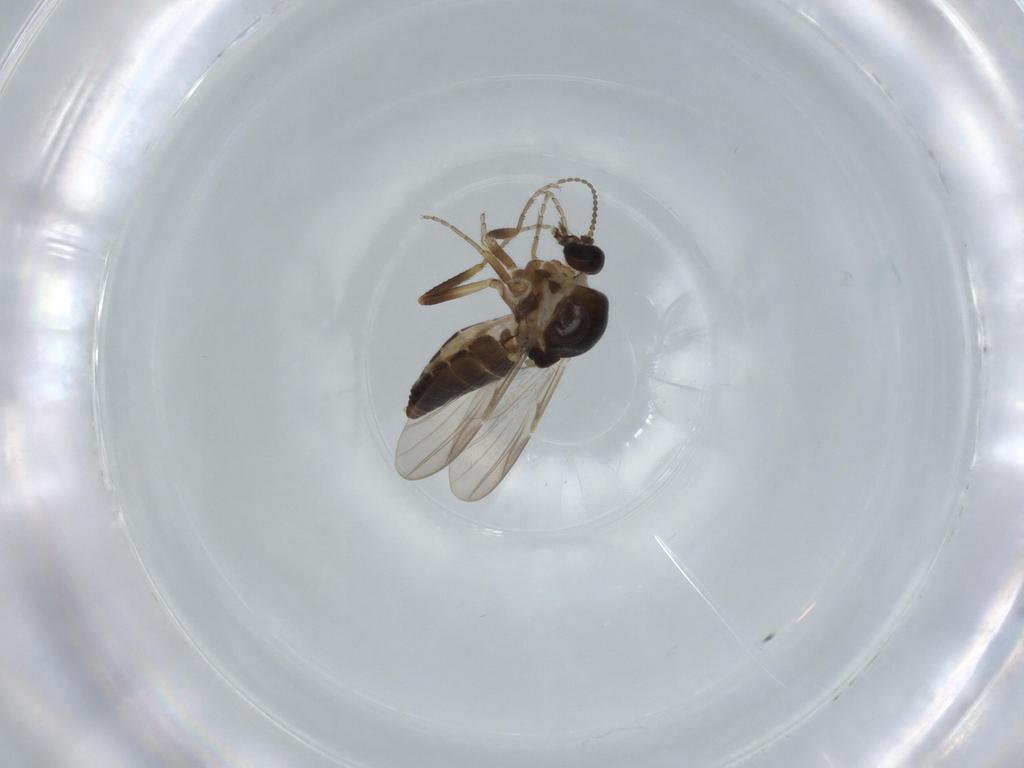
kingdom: Animalia
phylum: Arthropoda
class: Insecta
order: Diptera
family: Ceratopogonidae
